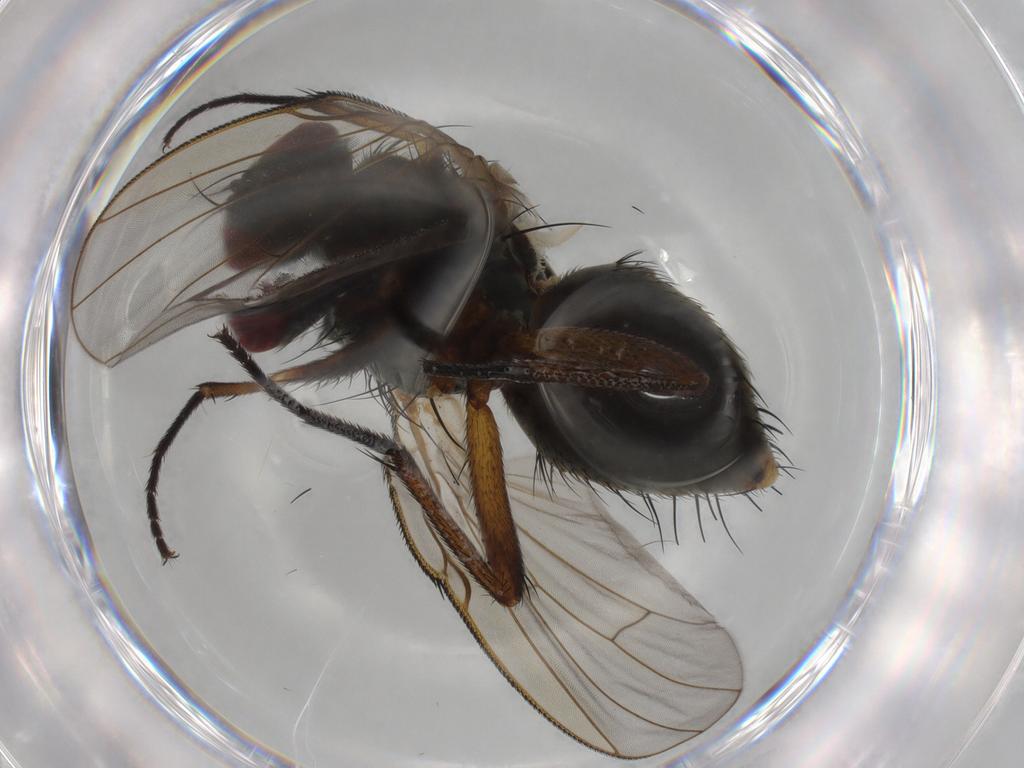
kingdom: Animalia
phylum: Arthropoda
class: Insecta
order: Diptera
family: Muscidae
